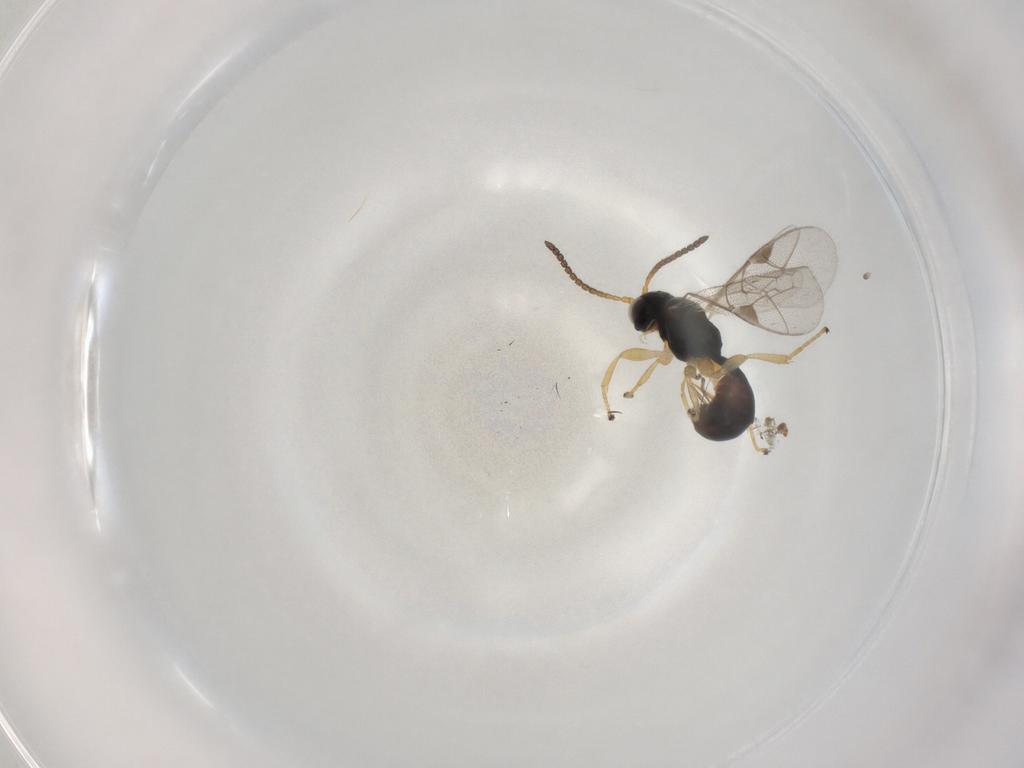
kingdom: Animalia
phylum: Arthropoda
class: Insecta
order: Hymenoptera
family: Ichneumonidae
